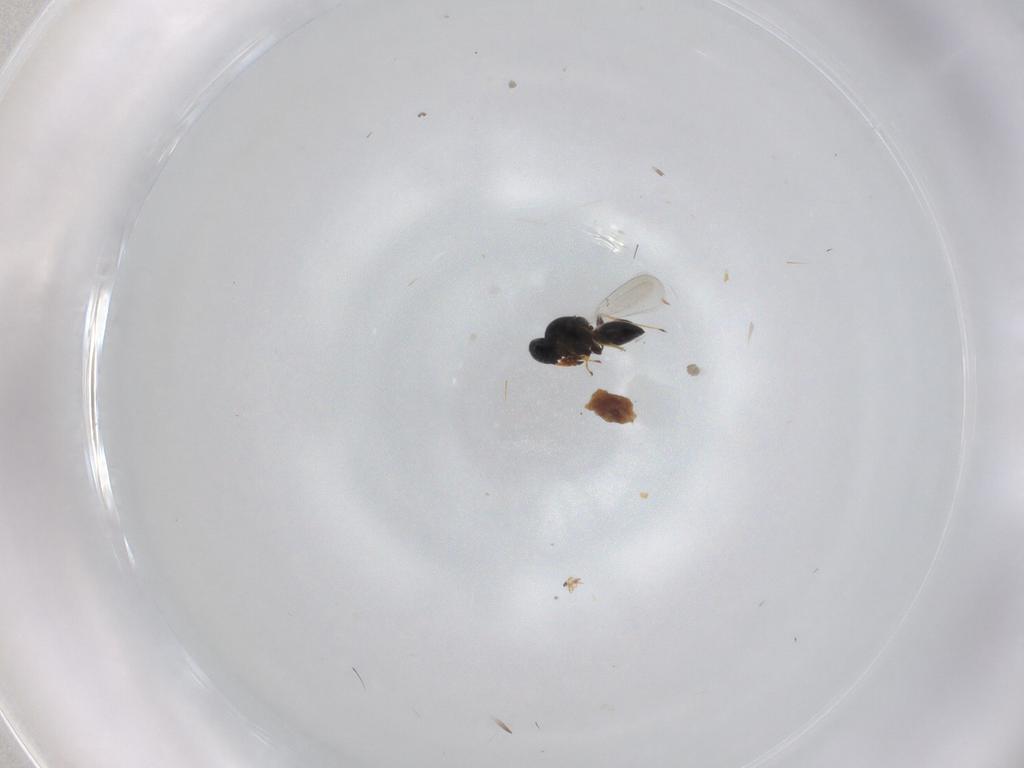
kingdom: Animalia
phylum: Arthropoda
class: Insecta
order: Hymenoptera
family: Platygastridae
